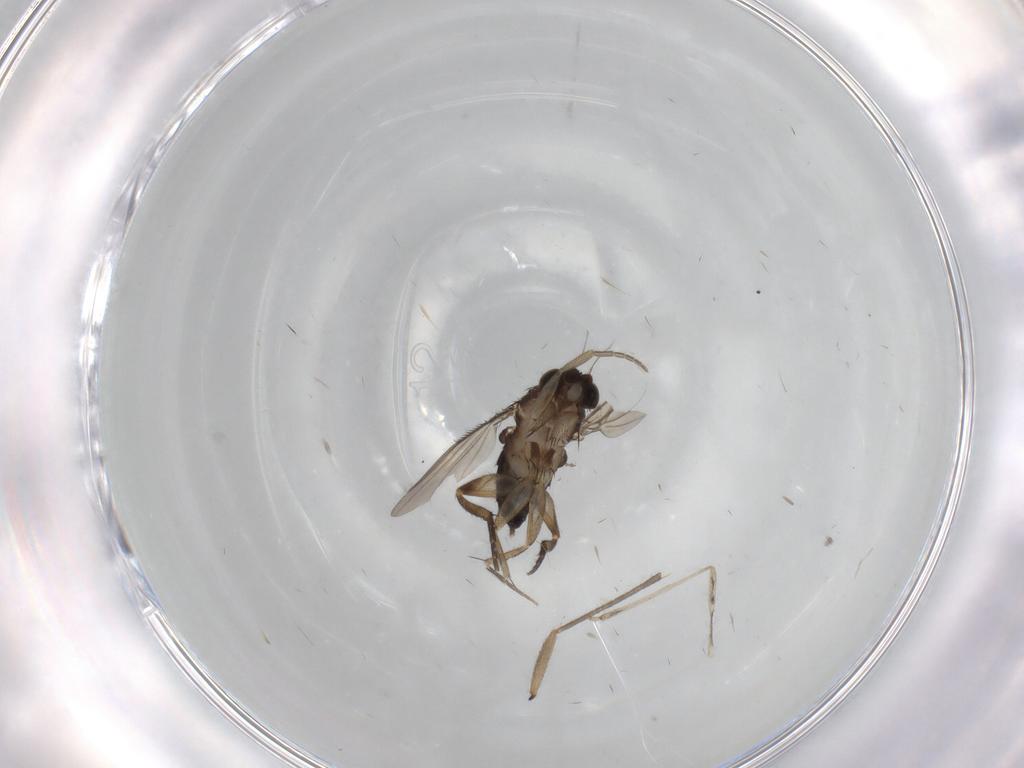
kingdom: Animalia
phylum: Arthropoda
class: Insecta
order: Diptera
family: Phoridae
